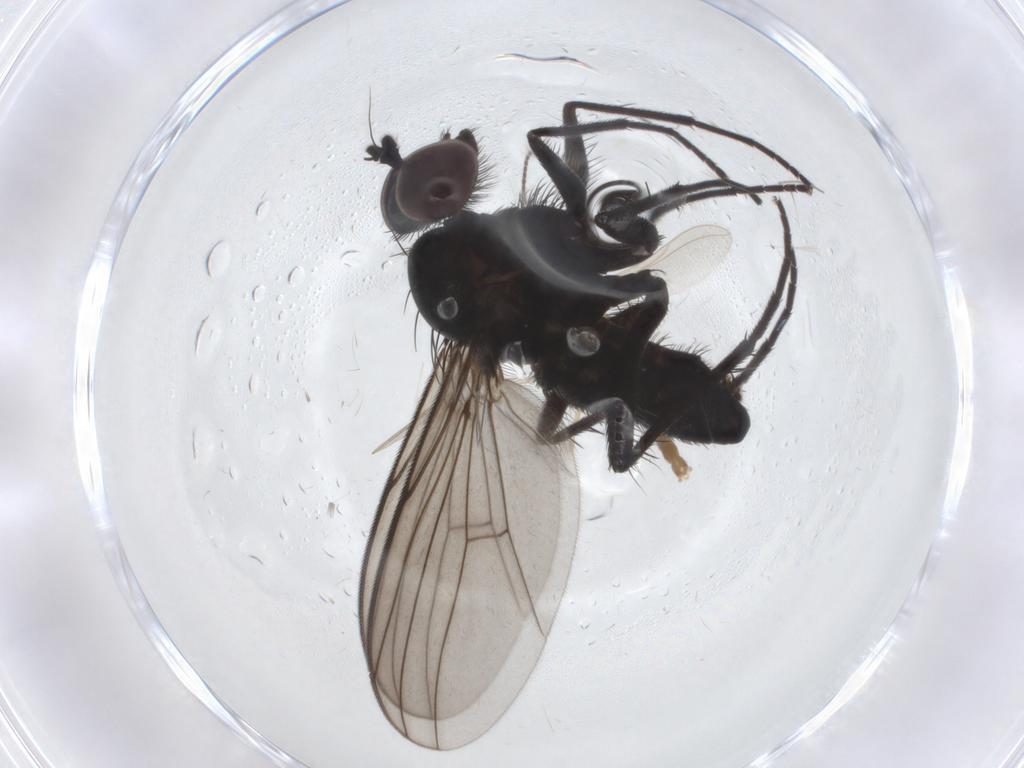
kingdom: Animalia
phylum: Arthropoda
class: Insecta
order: Diptera
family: Chironomidae
